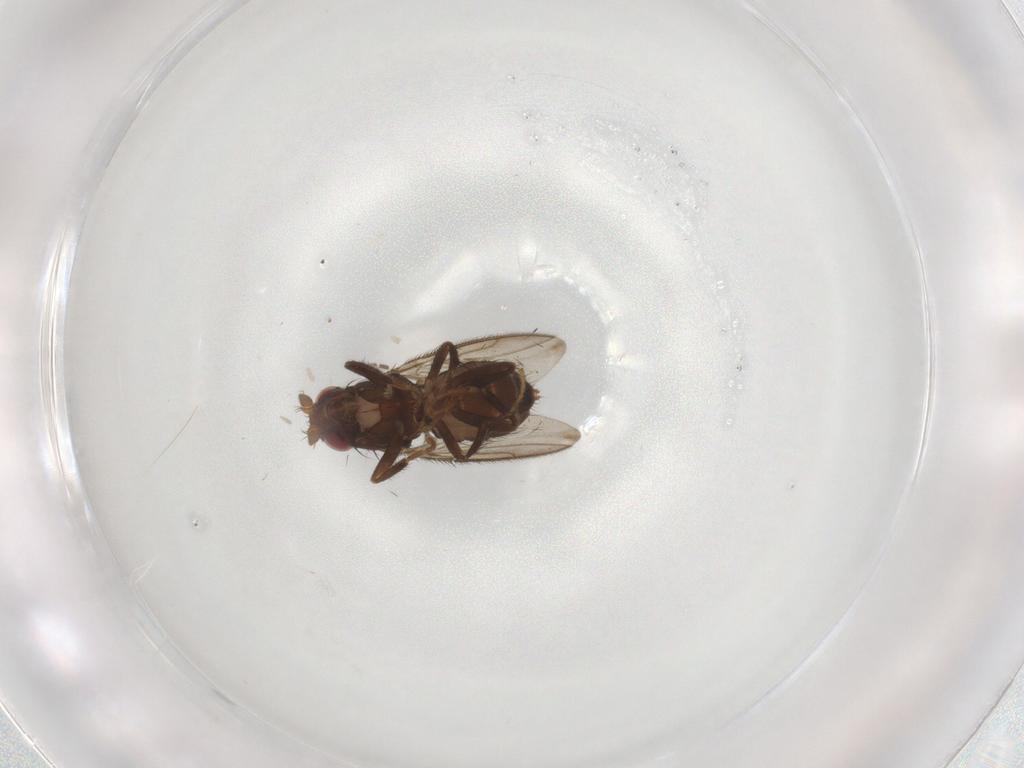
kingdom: Animalia
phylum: Arthropoda
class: Insecta
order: Diptera
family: Sphaeroceridae
